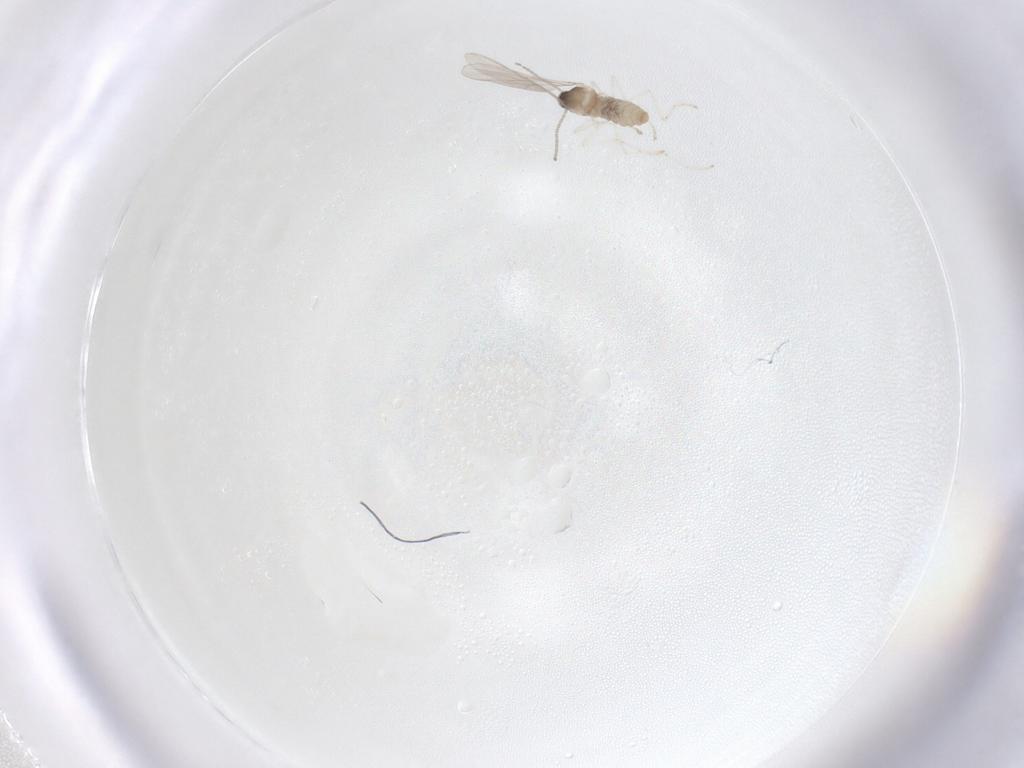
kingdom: Animalia
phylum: Arthropoda
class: Insecta
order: Diptera
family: Cecidomyiidae
